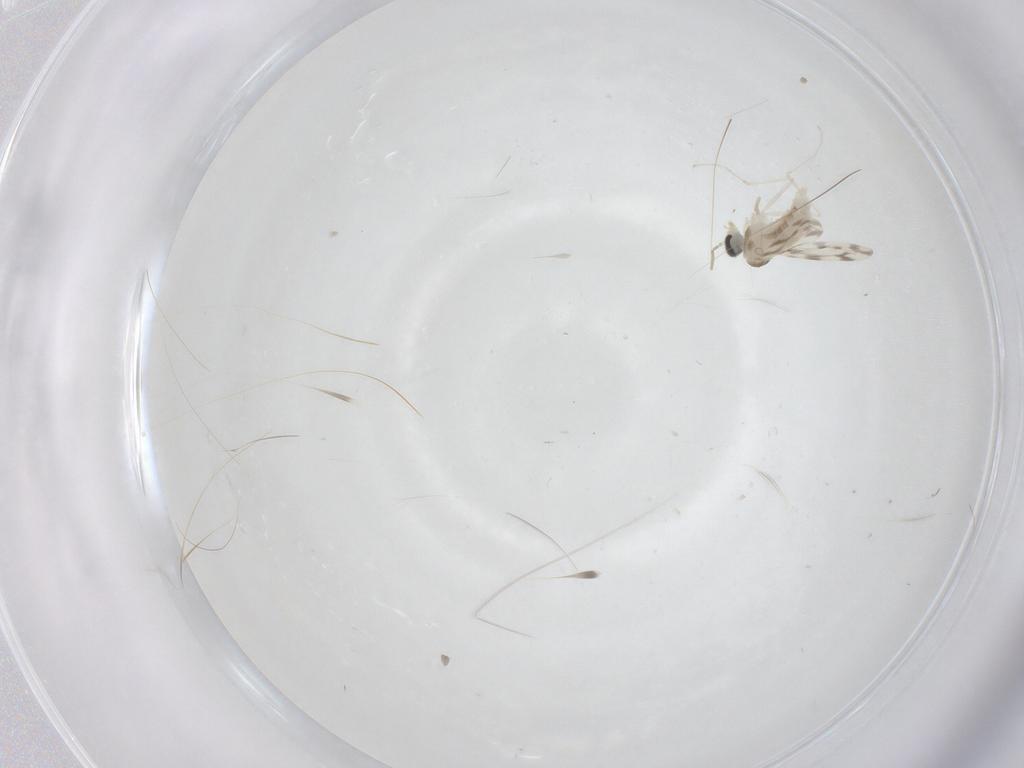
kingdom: Animalia
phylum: Arthropoda
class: Insecta
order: Diptera
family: Cecidomyiidae
